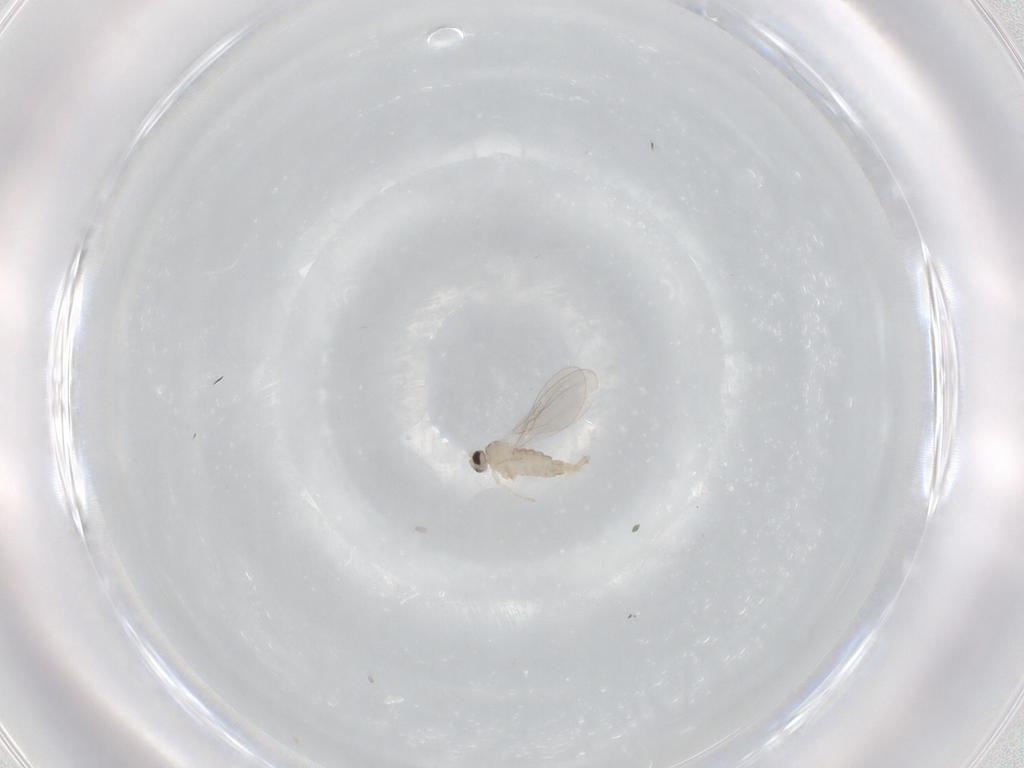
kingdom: Animalia
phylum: Arthropoda
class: Insecta
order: Diptera
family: Cecidomyiidae
